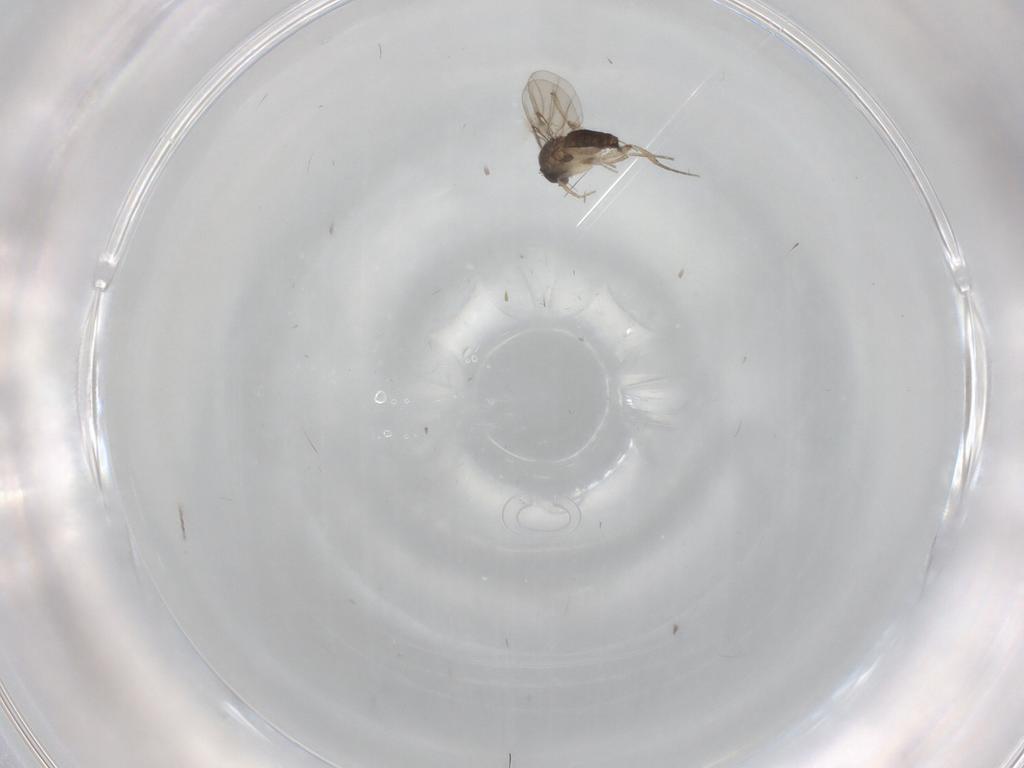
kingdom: Animalia
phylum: Arthropoda
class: Insecta
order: Diptera
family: Phoridae
